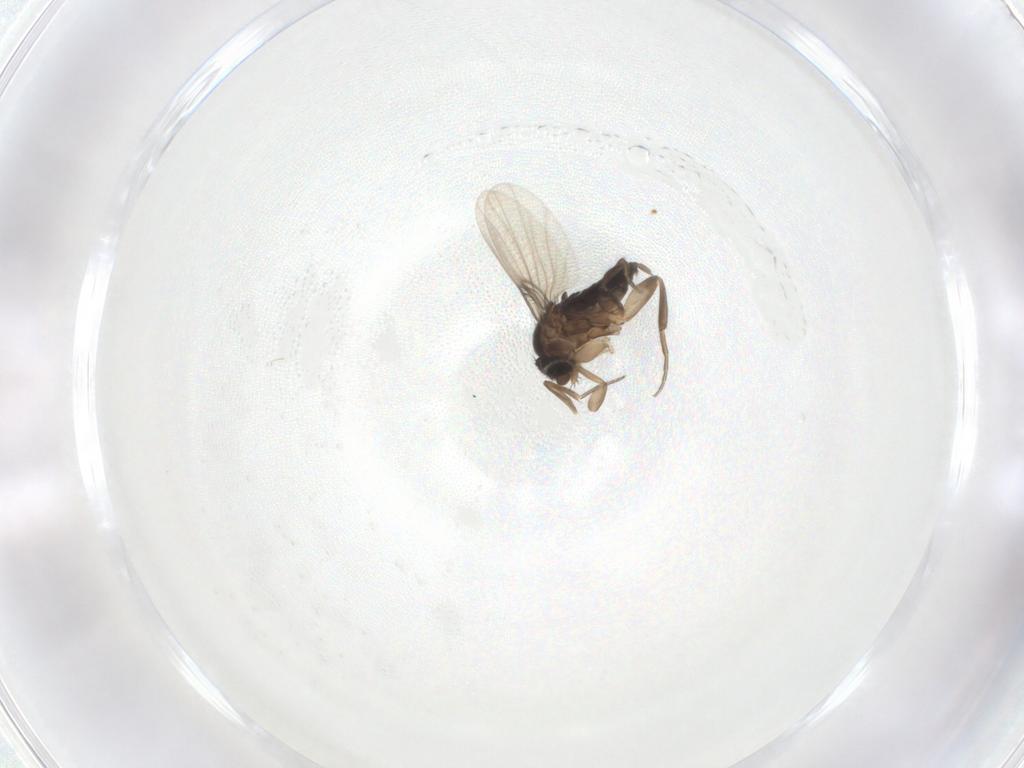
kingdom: Animalia
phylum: Arthropoda
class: Insecta
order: Diptera
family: Phoridae
